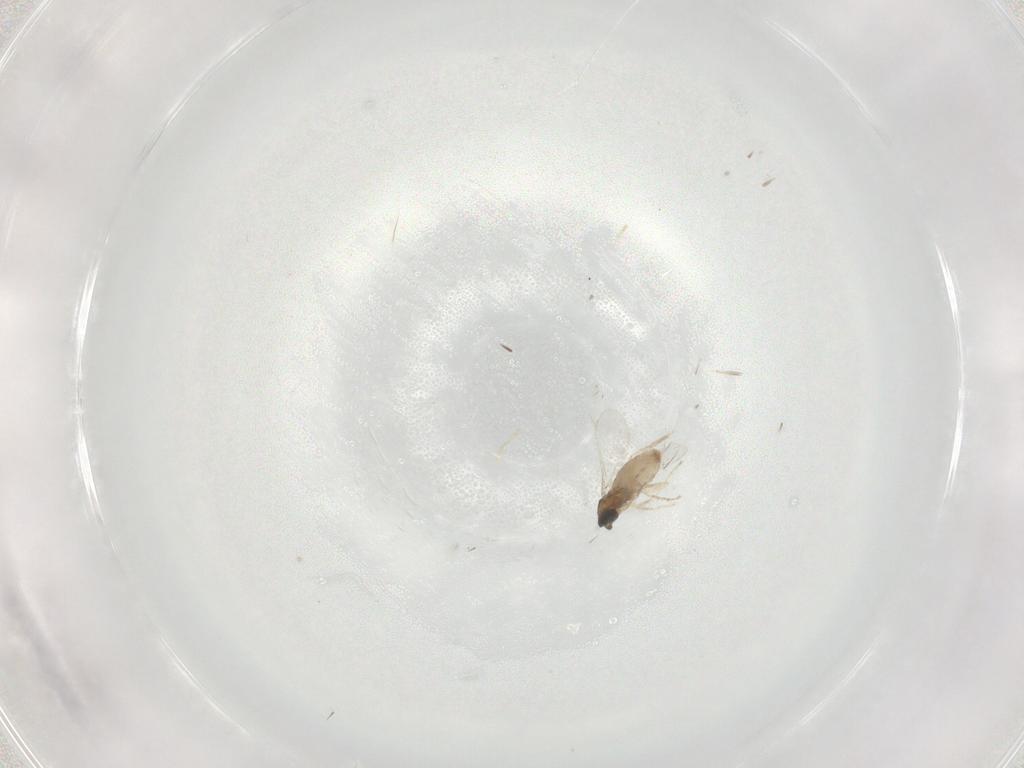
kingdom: Animalia
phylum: Arthropoda
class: Insecta
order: Diptera
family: Cecidomyiidae
